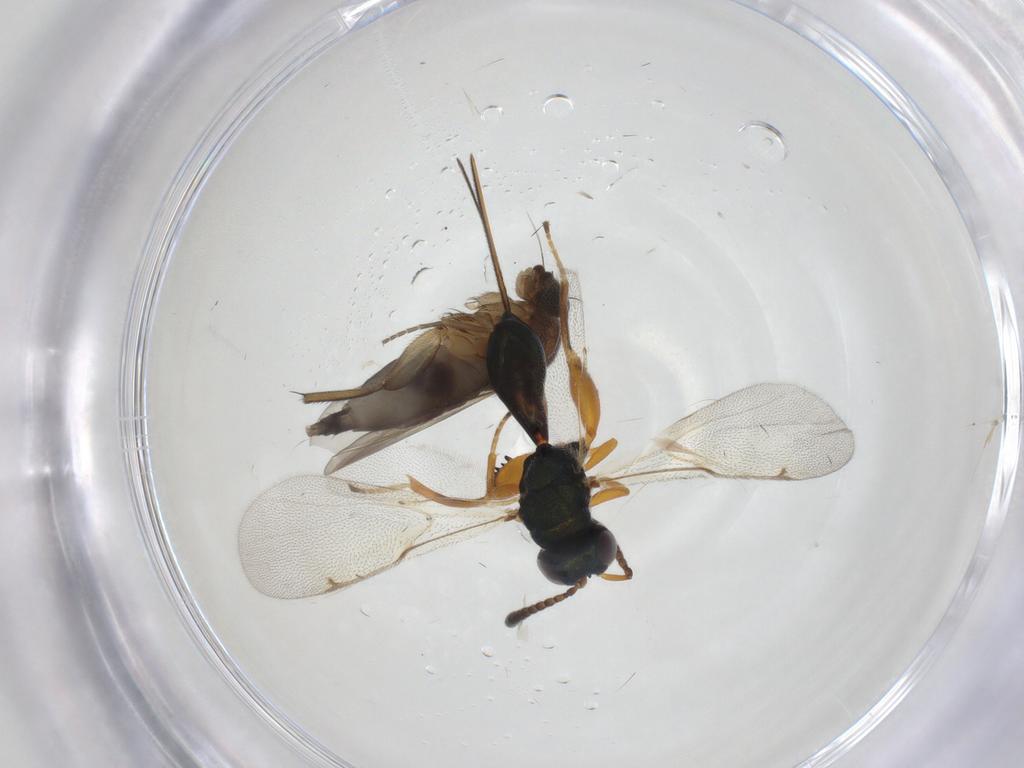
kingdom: Animalia
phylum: Arthropoda
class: Insecta
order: Diptera
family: Phoridae
